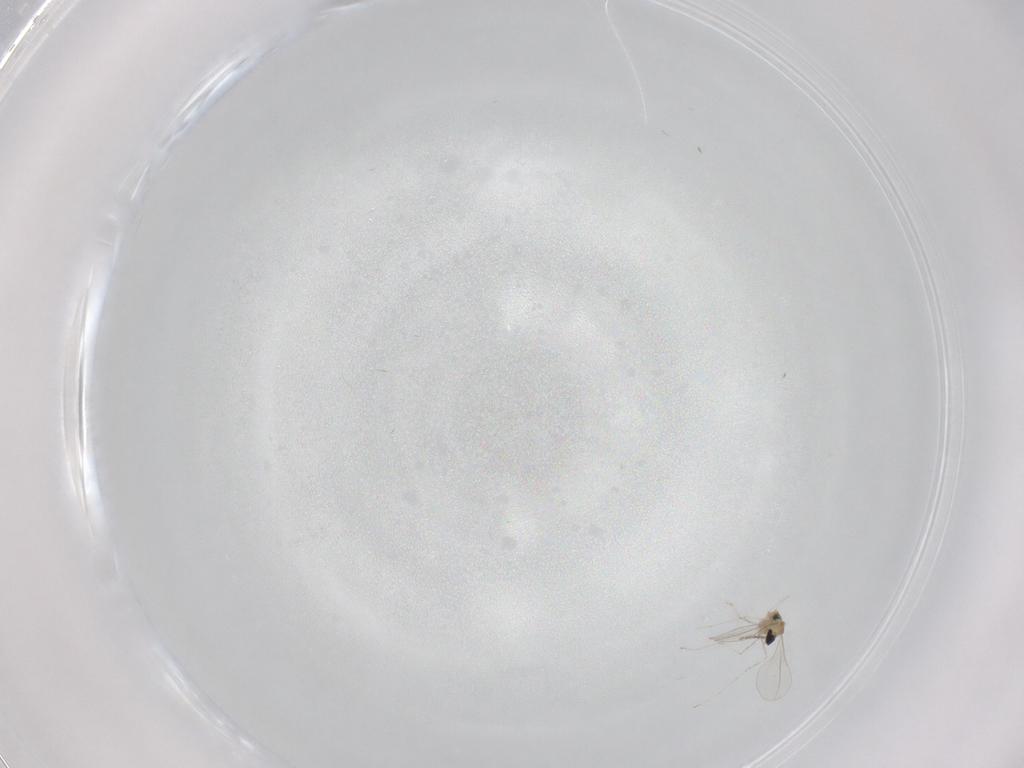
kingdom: Animalia
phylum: Arthropoda
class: Insecta
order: Diptera
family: Cecidomyiidae
